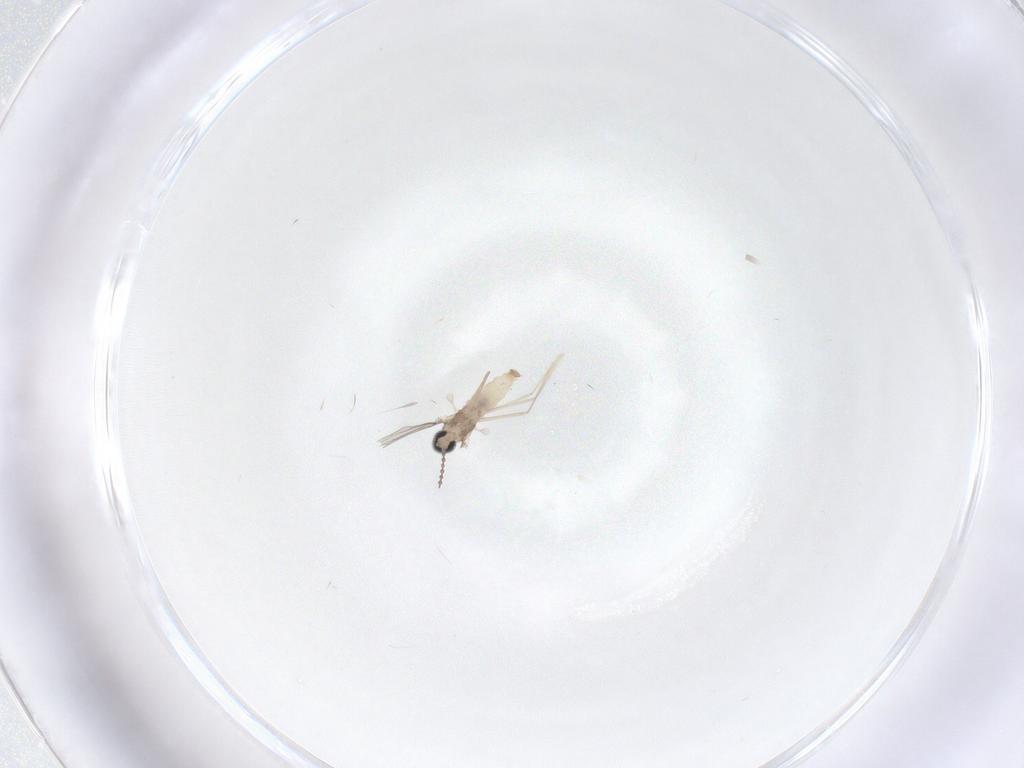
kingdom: Animalia
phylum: Arthropoda
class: Insecta
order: Diptera
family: Cecidomyiidae
